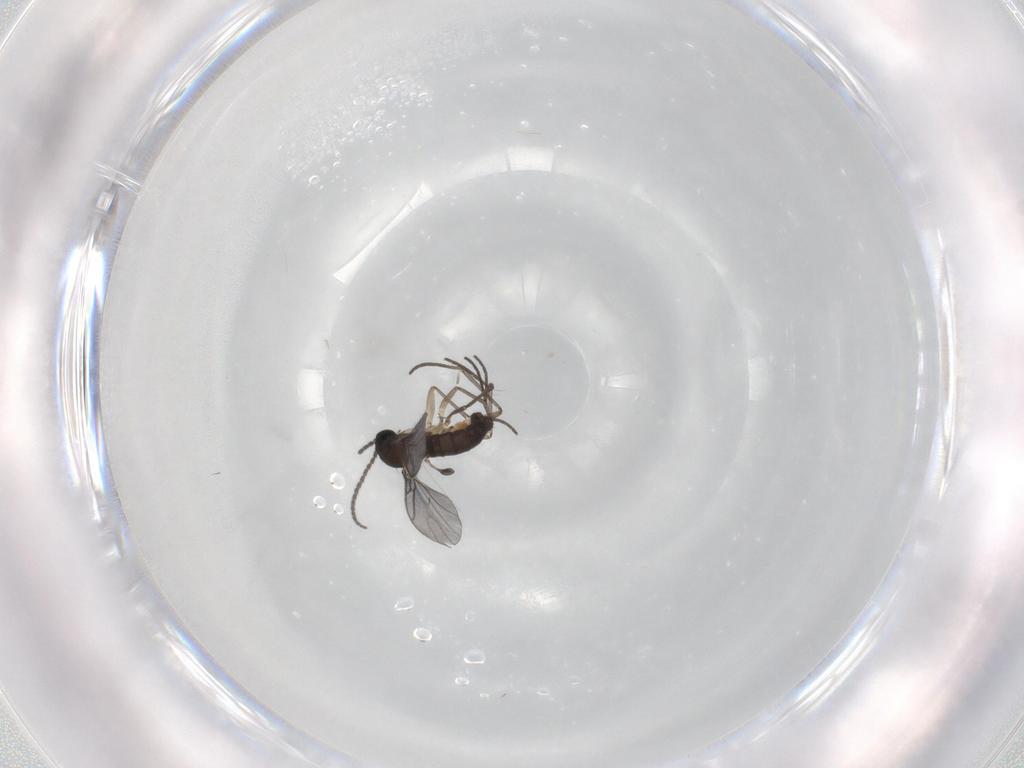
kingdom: Animalia
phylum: Arthropoda
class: Insecta
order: Diptera
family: Sciaridae
